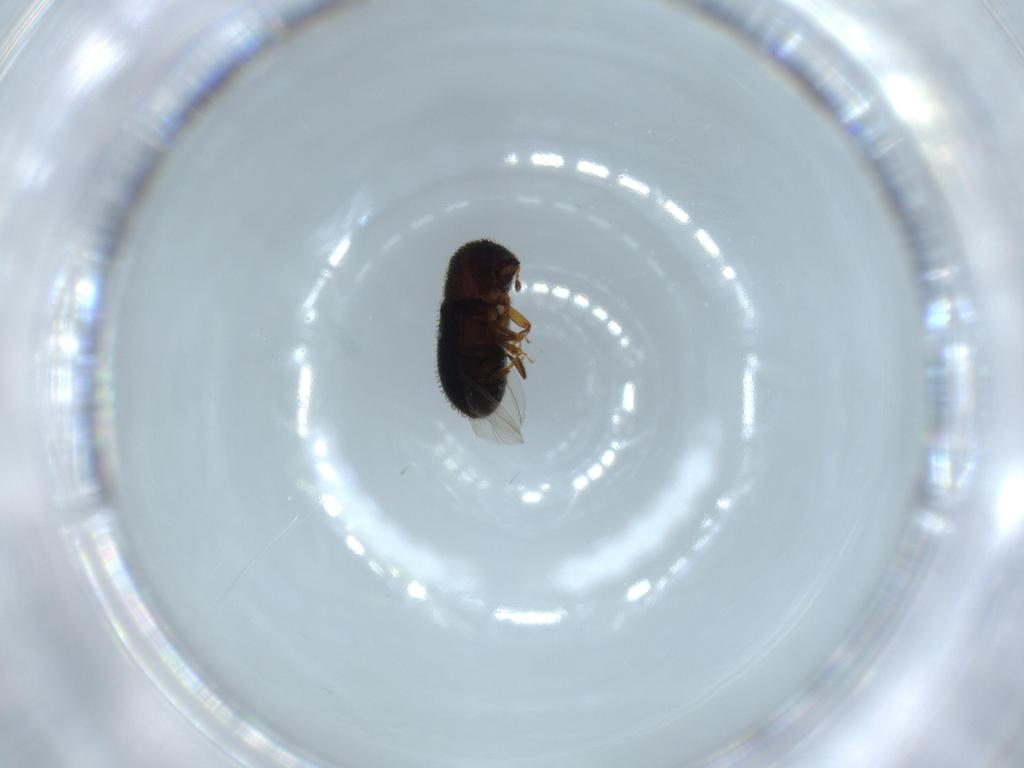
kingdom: Animalia
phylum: Arthropoda
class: Insecta
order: Coleoptera
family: Curculionidae
